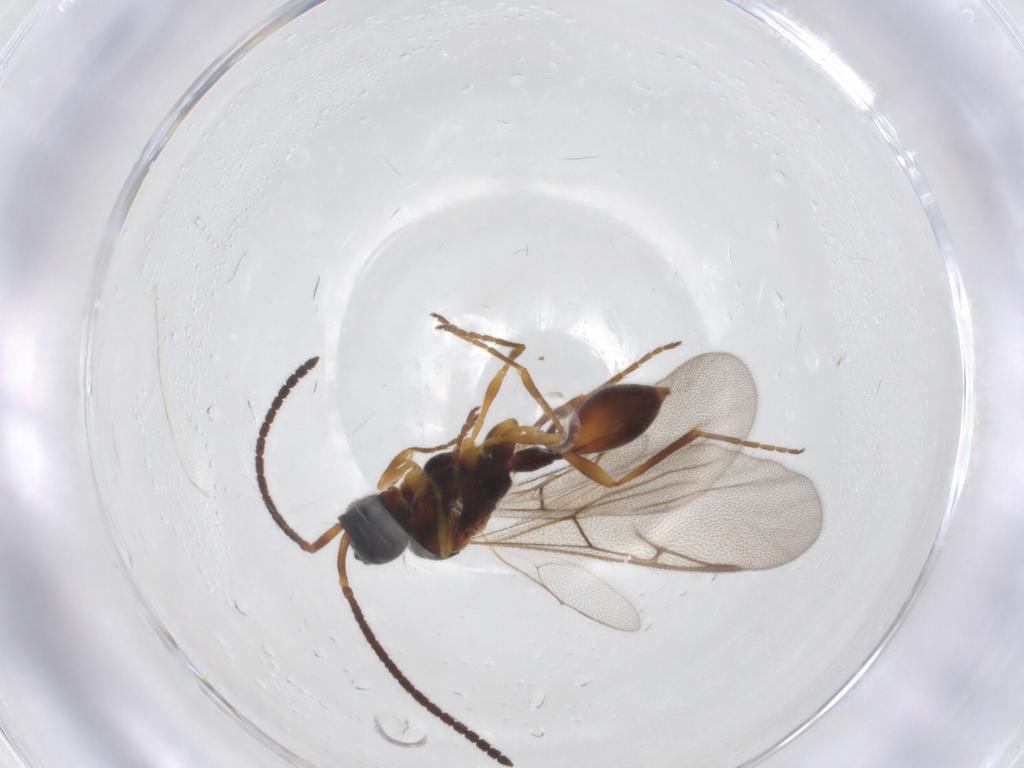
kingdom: Animalia
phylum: Arthropoda
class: Insecta
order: Hymenoptera
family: Diapriidae
